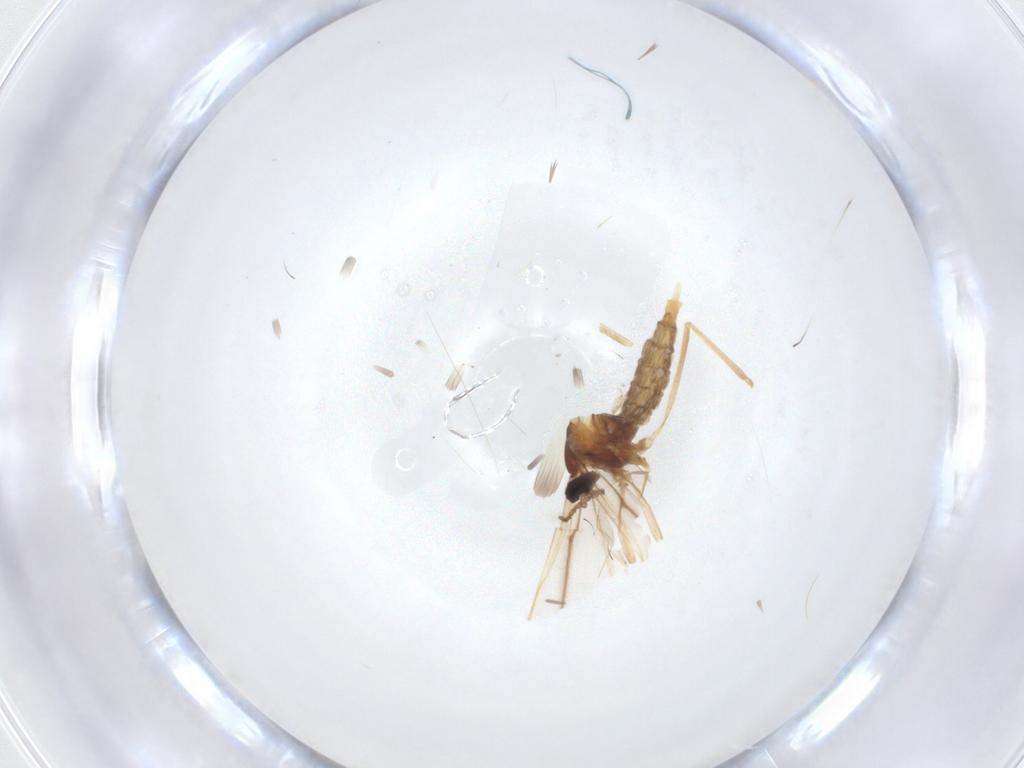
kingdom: Animalia
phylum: Arthropoda
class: Insecta
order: Diptera
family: Cecidomyiidae
